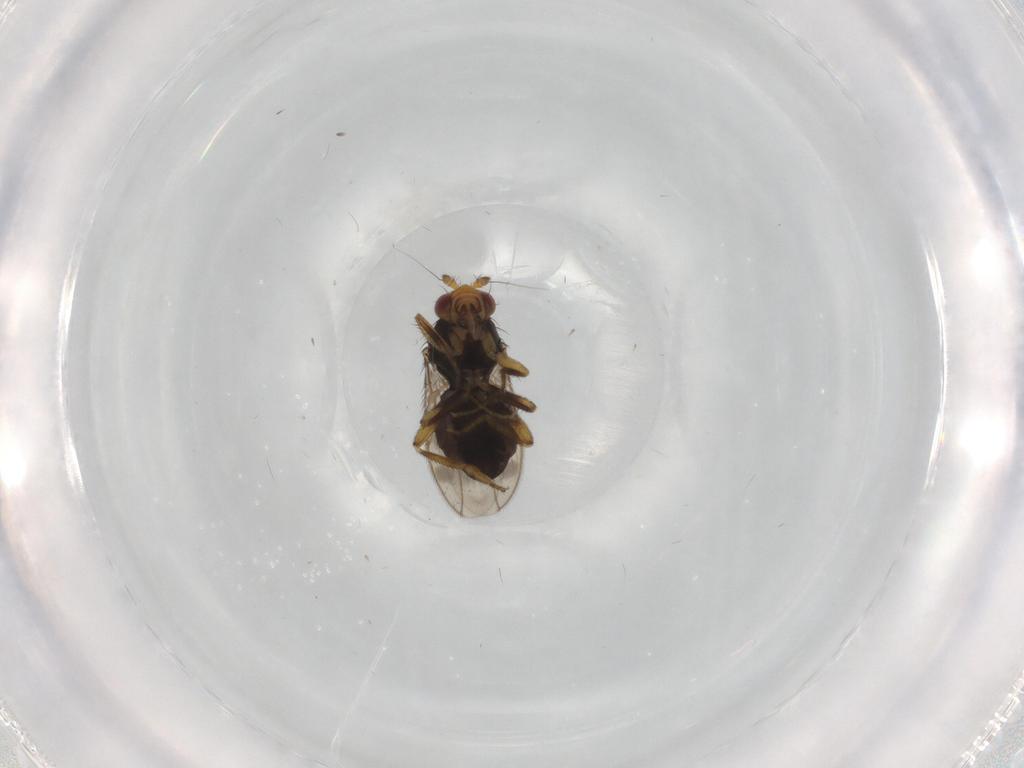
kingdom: Animalia
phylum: Arthropoda
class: Insecta
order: Diptera
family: Sphaeroceridae
